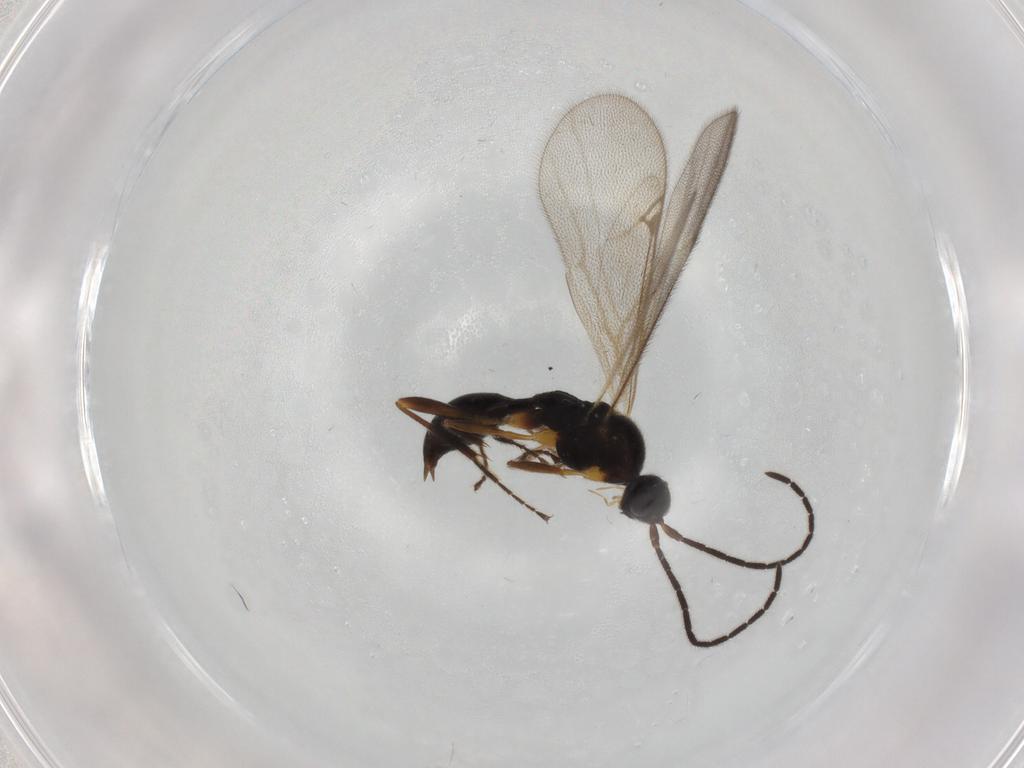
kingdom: Animalia
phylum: Arthropoda
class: Insecta
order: Hymenoptera
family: Proctotrupidae
